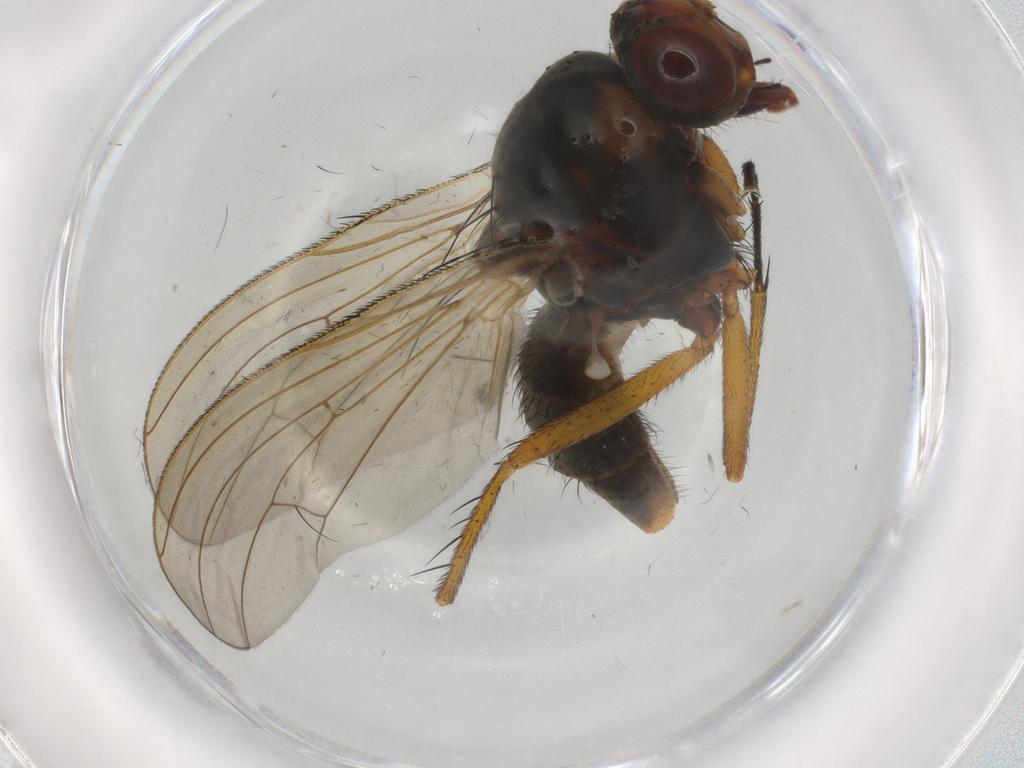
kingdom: Animalia
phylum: Arthropoda
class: Insecta
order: Diptera
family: Anthomyiidae
